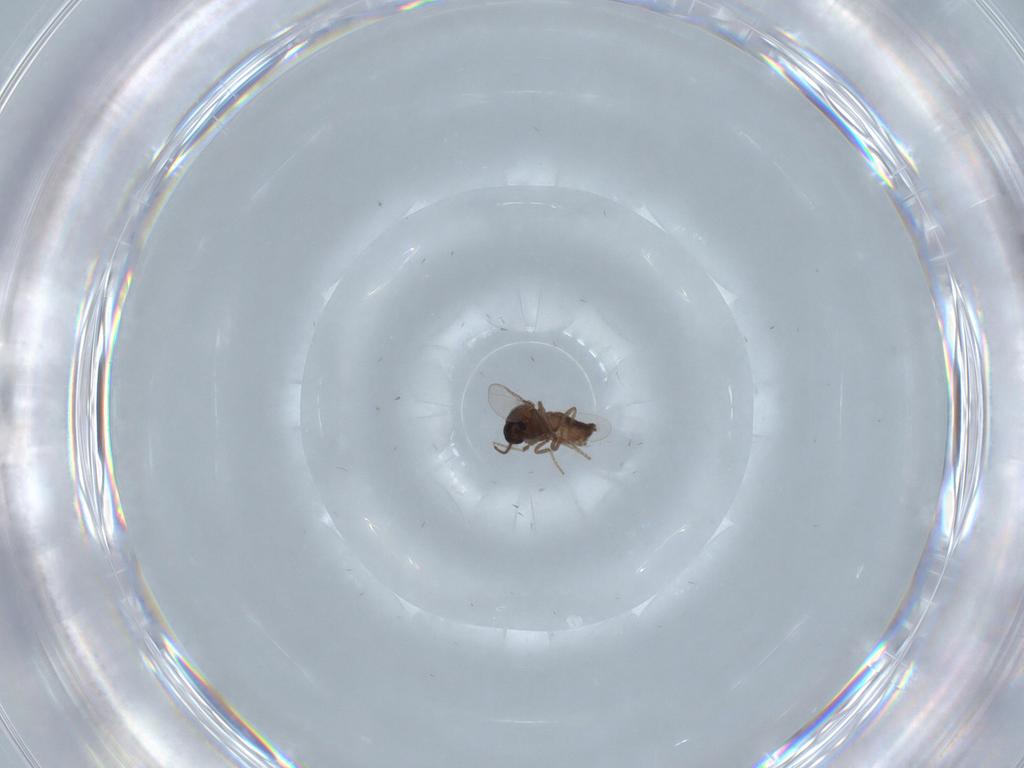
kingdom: Animalia
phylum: Arthropoda
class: Insecta
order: Diptera
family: Ceratopogonidae
